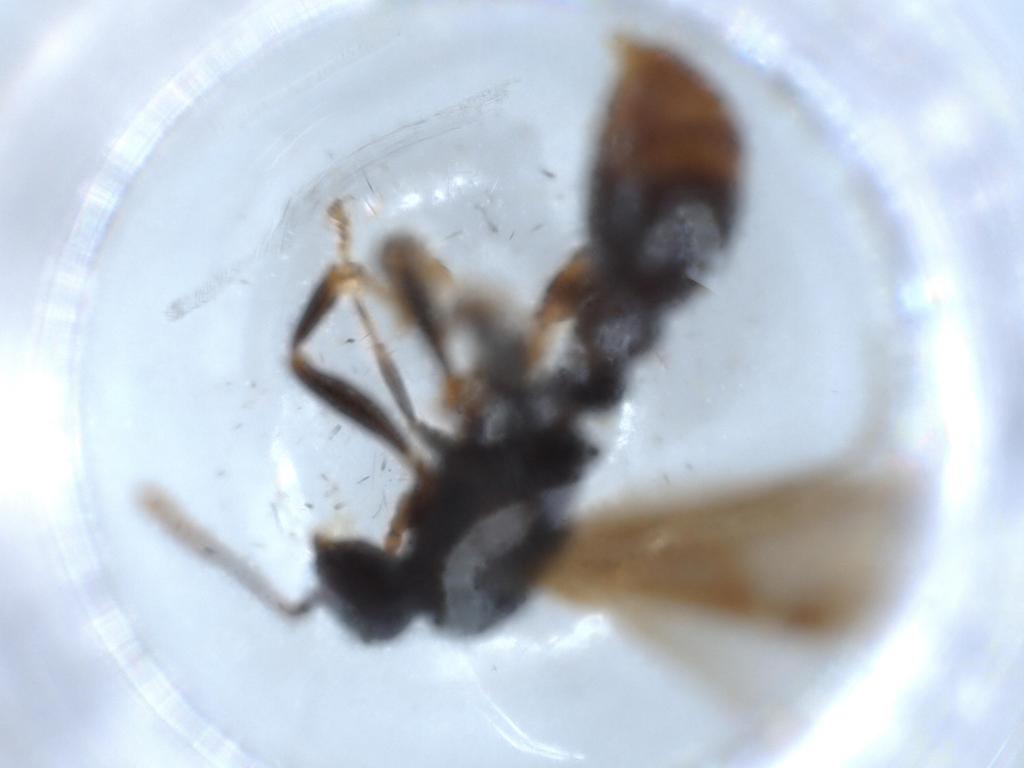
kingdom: Animalia
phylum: Arthropoda
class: Insecta
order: Hymenoptera
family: Formicidae
